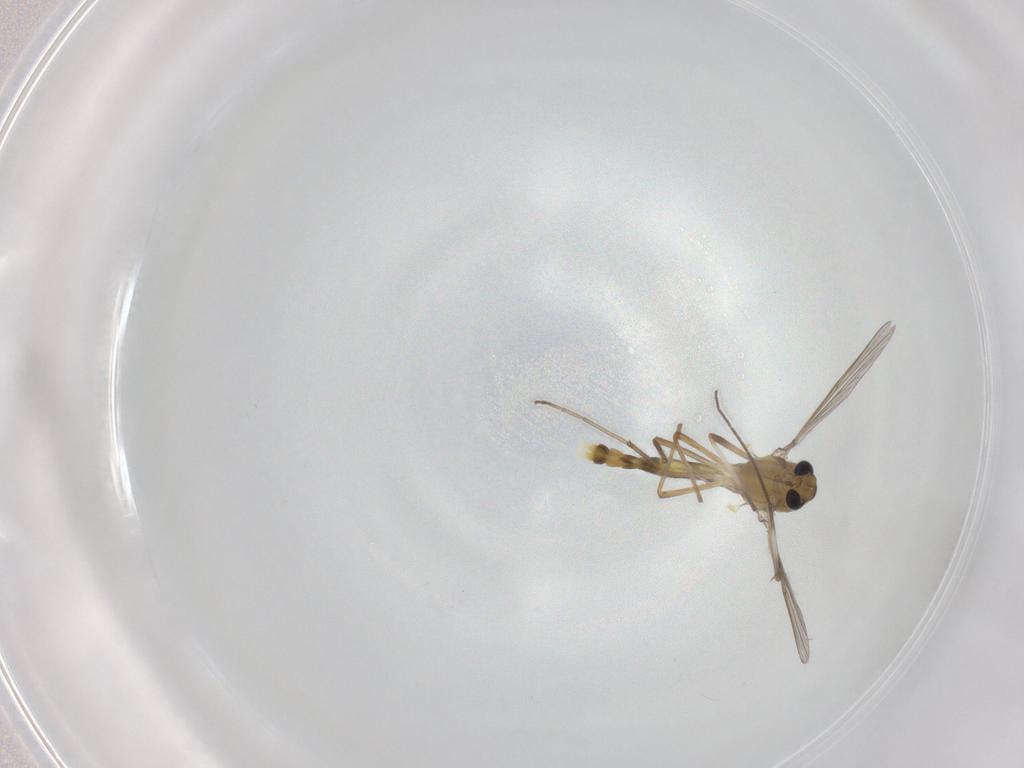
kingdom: Animalia
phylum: Arthropoda
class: Insecta
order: Diptera
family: Chironomidae
